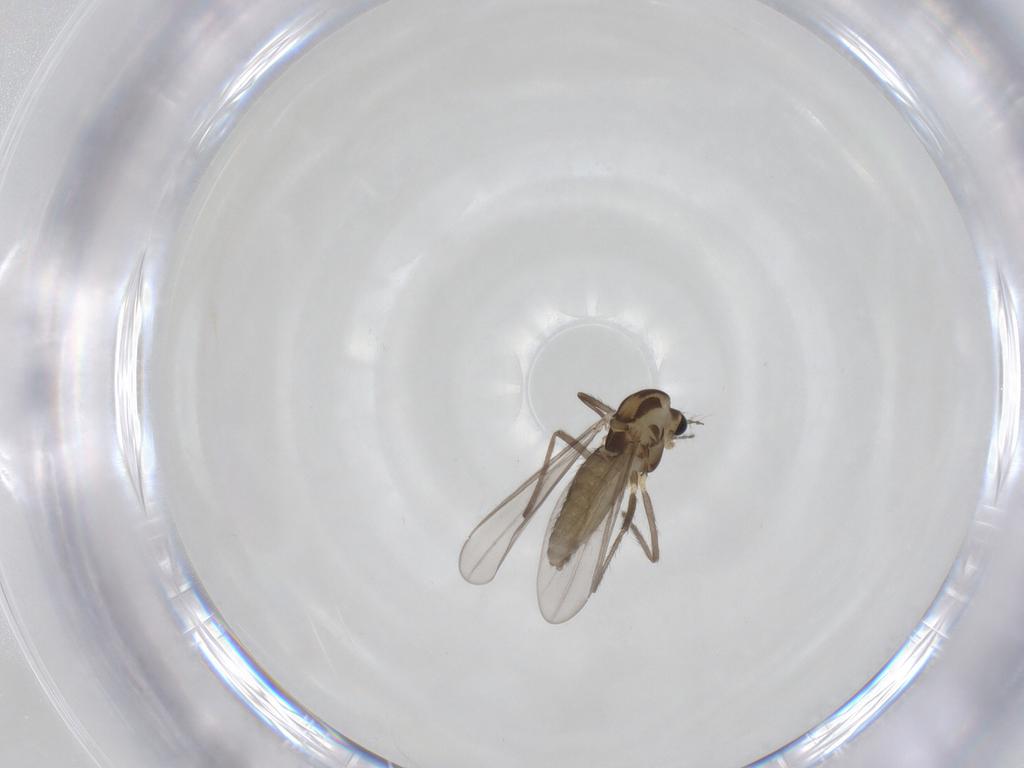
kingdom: Animalia
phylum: Arthropoda
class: Insecta
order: Diptera
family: Chironomidae
